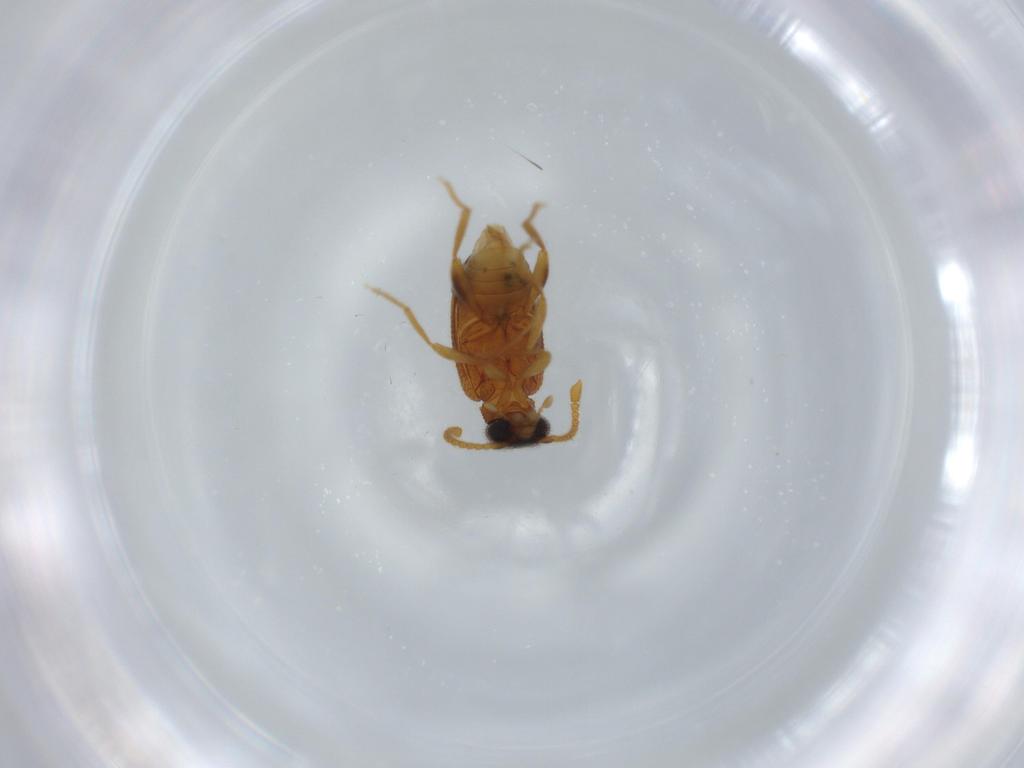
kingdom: Animalia
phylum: Arthropoda
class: Insecta
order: Coleoptera
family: Aderidae
